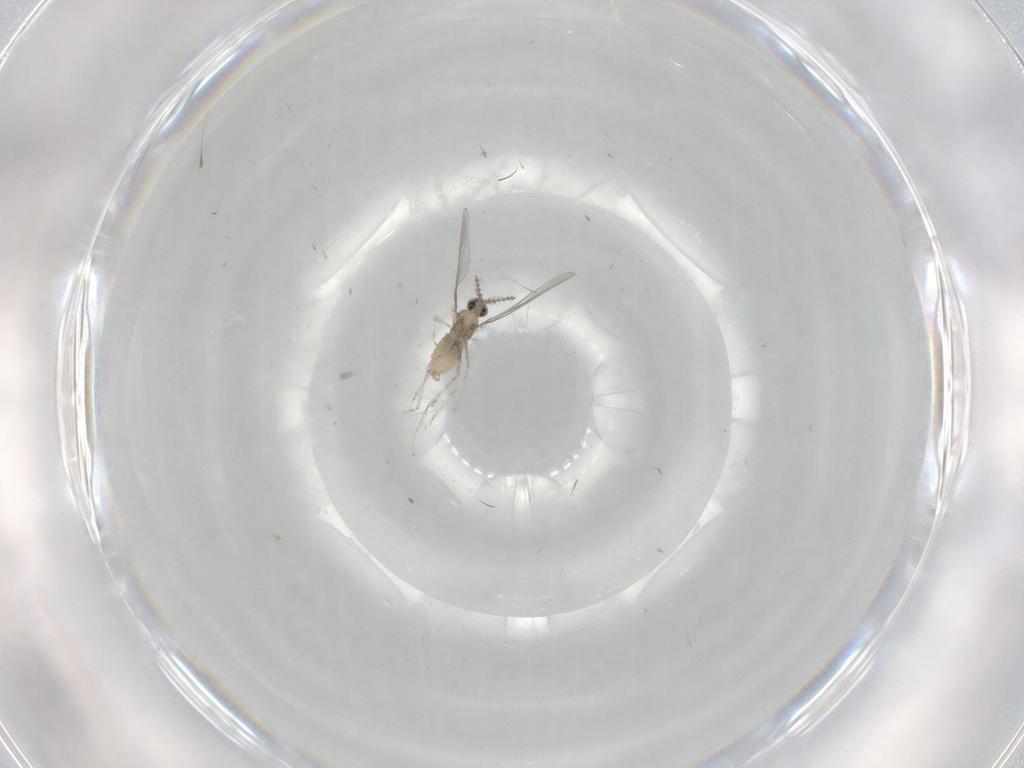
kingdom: Animalia
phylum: Arthropoda
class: Insecta
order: Diptera
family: Cecidomyiidae
